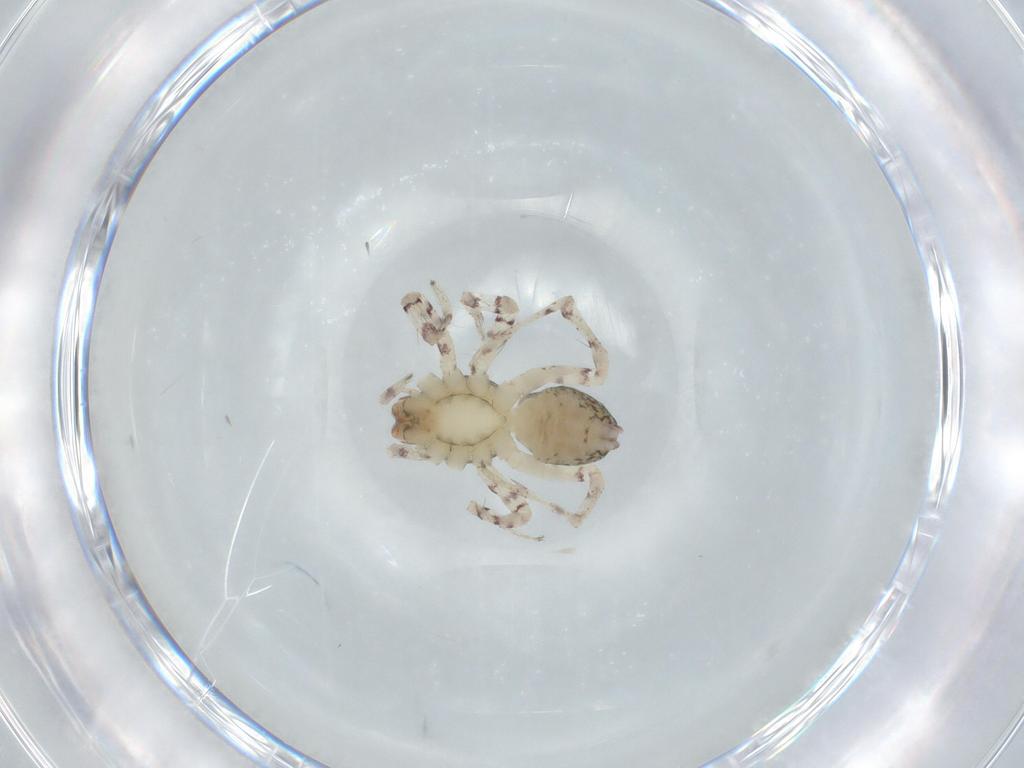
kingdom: Animalia
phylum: Arthropoda
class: Arachnida
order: Araneae
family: Anyphaenidae
